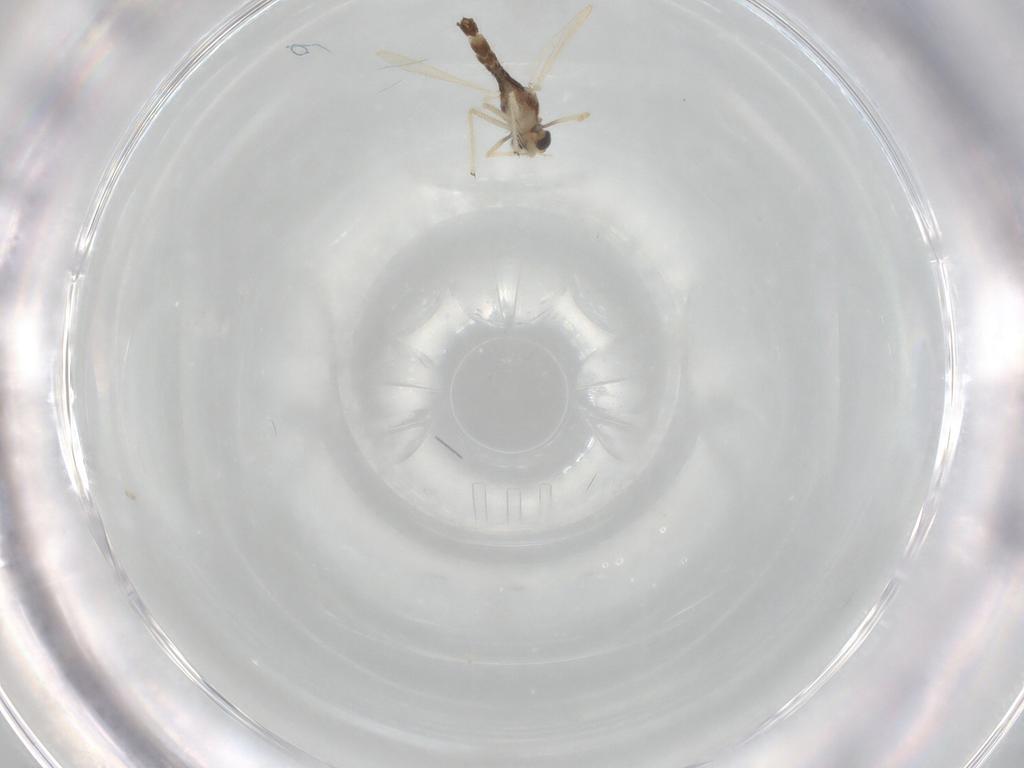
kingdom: Animalia
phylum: Arthropoda
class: Insecta
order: Diptera
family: Chironomidae
